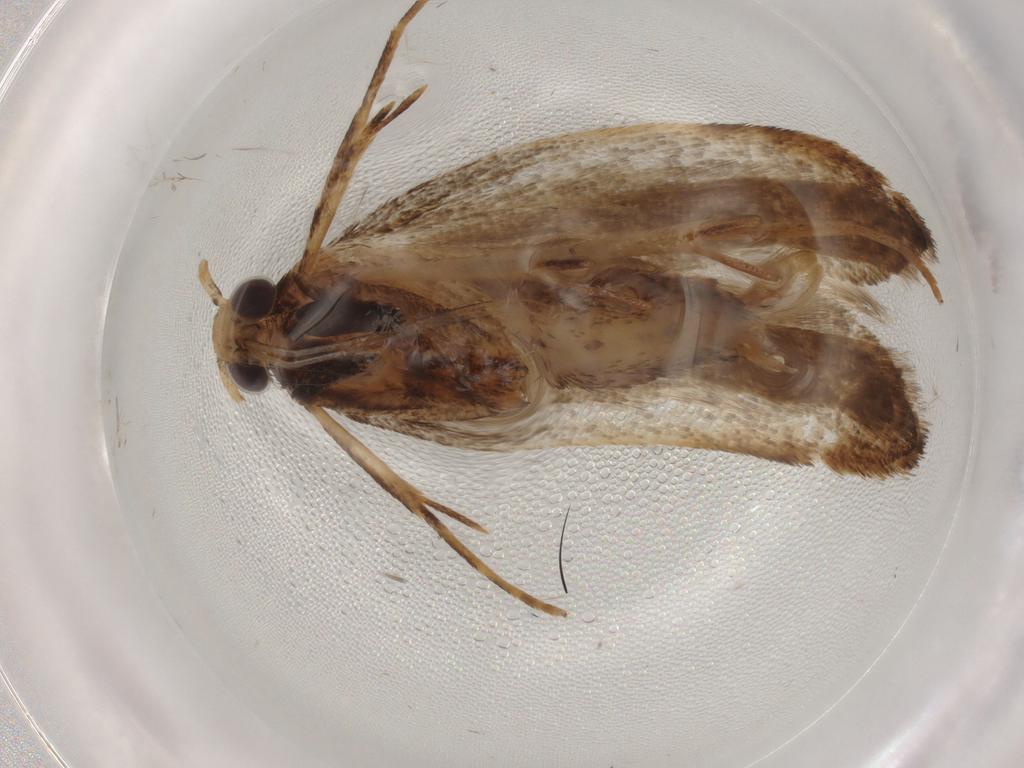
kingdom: Animalia
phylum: Arthropoda
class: Insecta
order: Lepidoptera
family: Gelechiidae
